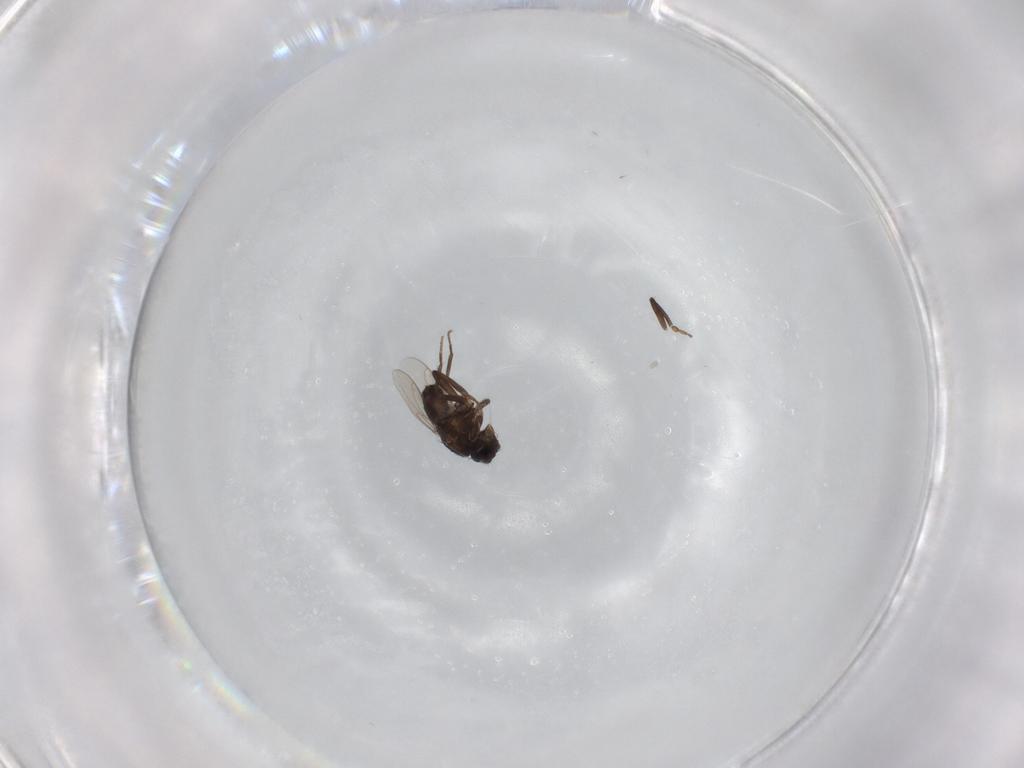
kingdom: Animalia
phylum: Arthropoda
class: Insecta
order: Diptera
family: Sphaeroceridae
